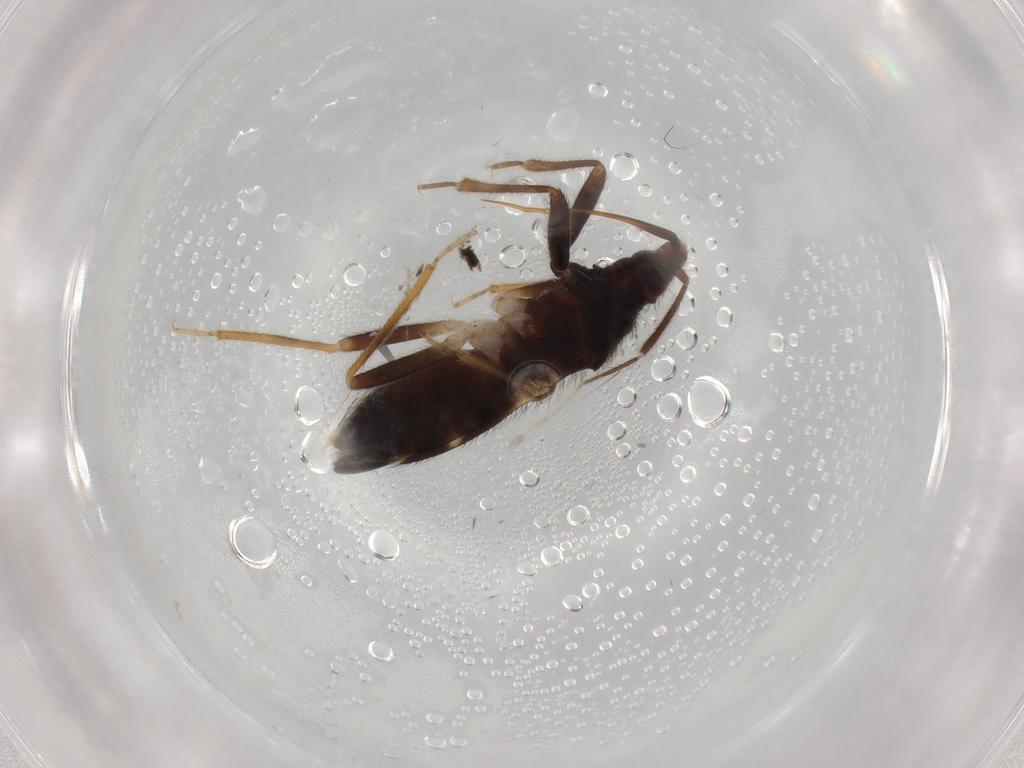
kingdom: Animalia
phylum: Arthropoda
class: Insecta
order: Hemiptera
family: Anthocoridae
